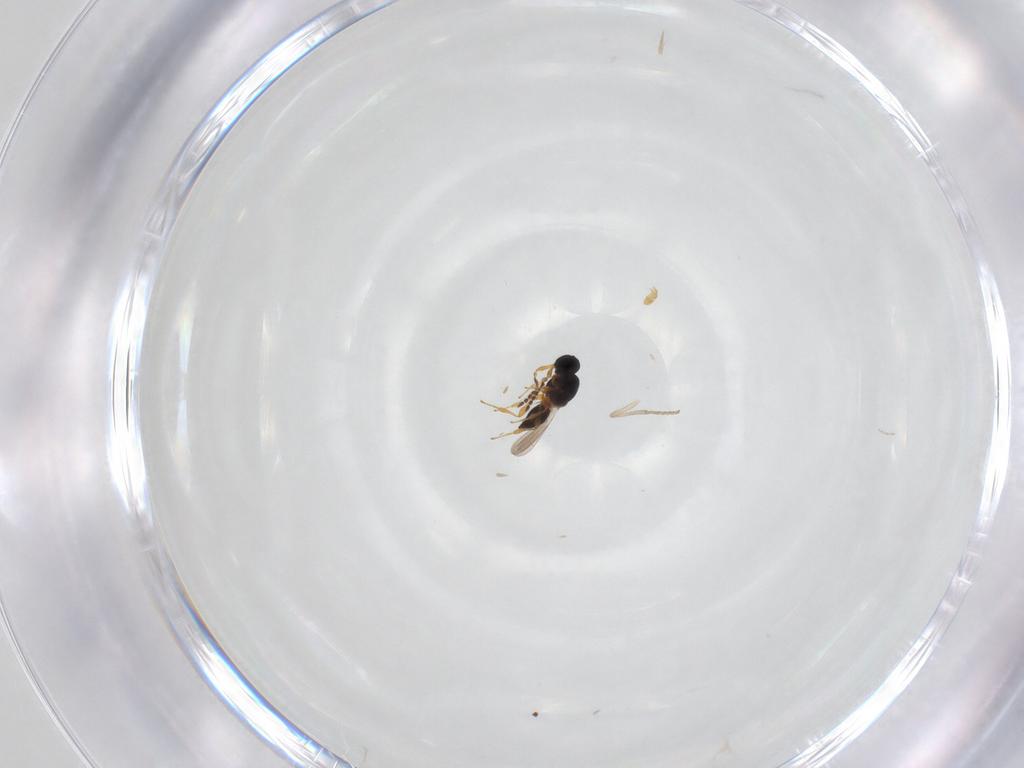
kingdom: Animalia
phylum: Arthropoda
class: Insecta
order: Hymenoptera
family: Platygastridae
